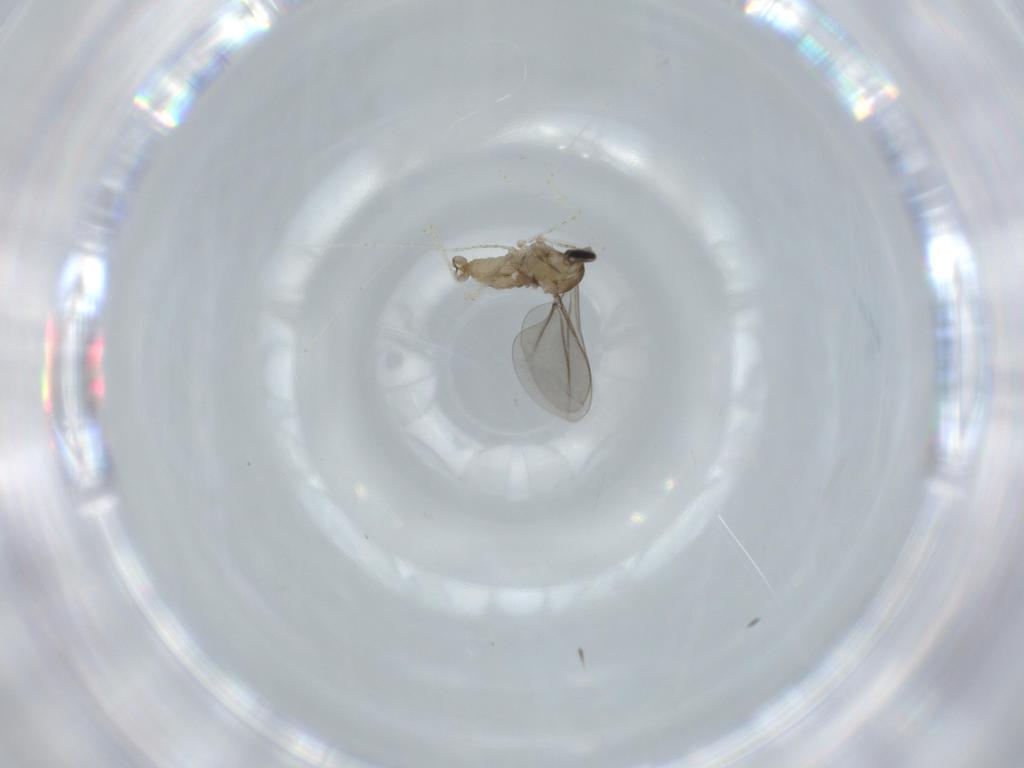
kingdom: Animalia
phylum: Arthropoda
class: Insecta
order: Diptera
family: Cecidomyiidae
